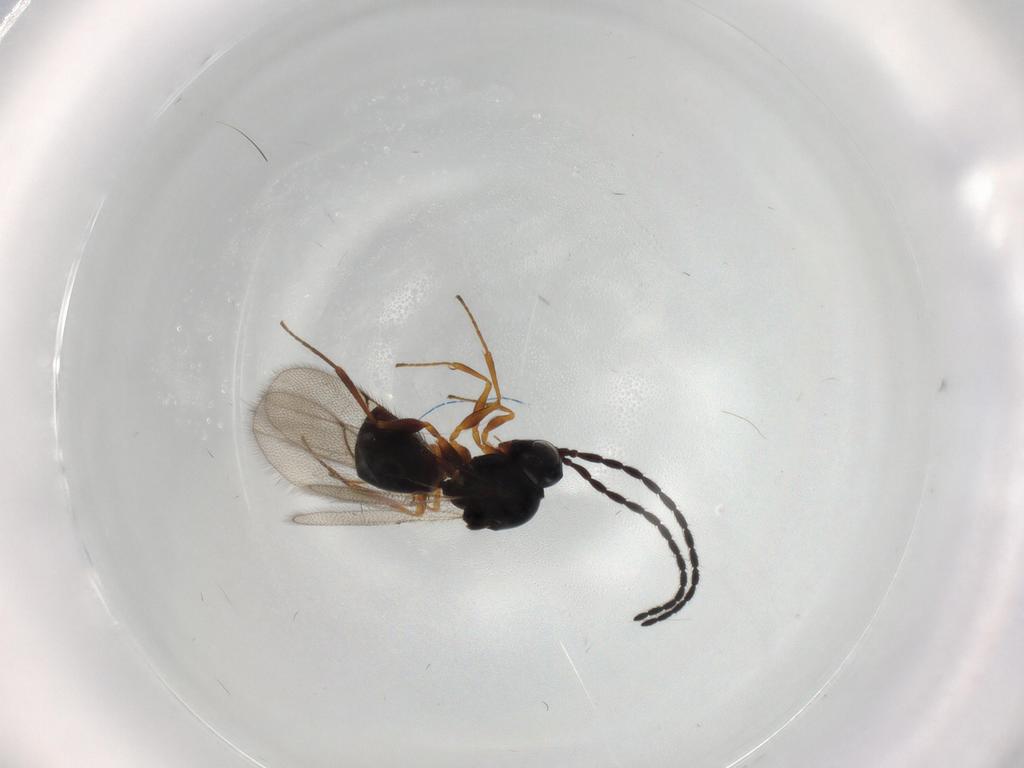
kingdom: Animalia
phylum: Arthropoda
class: Insecta
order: Hymenoptera
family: Figitidae
